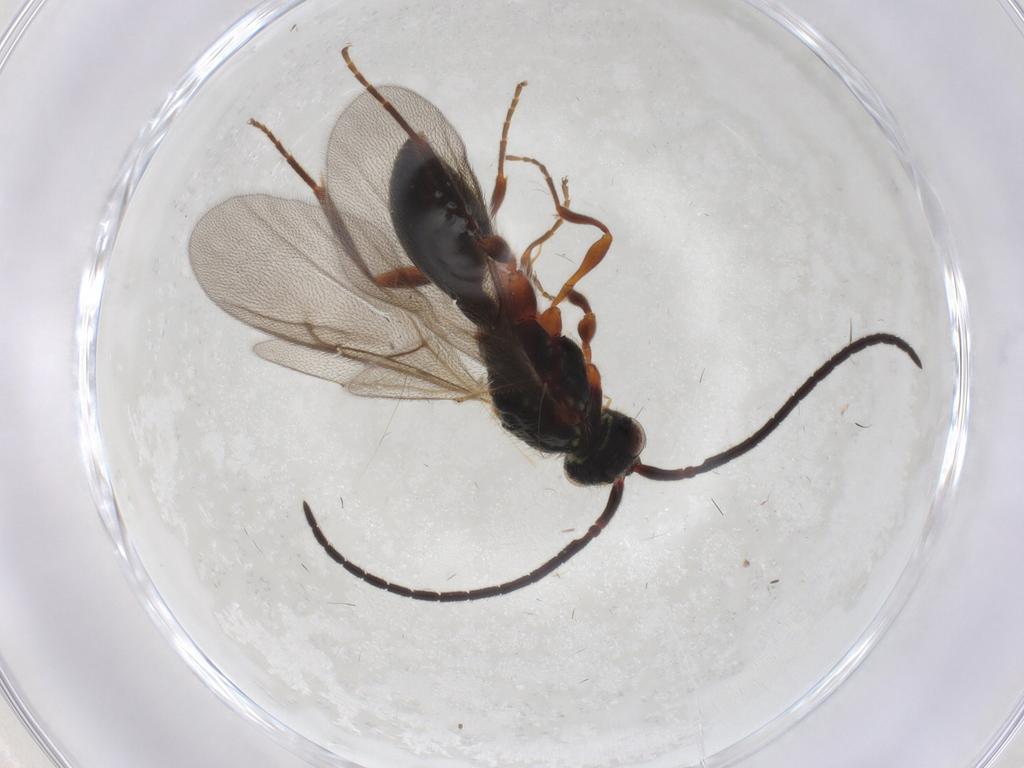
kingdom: Animalia
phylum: Arthropoda
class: Insecta
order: Hymenoptera
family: Diapriidae
